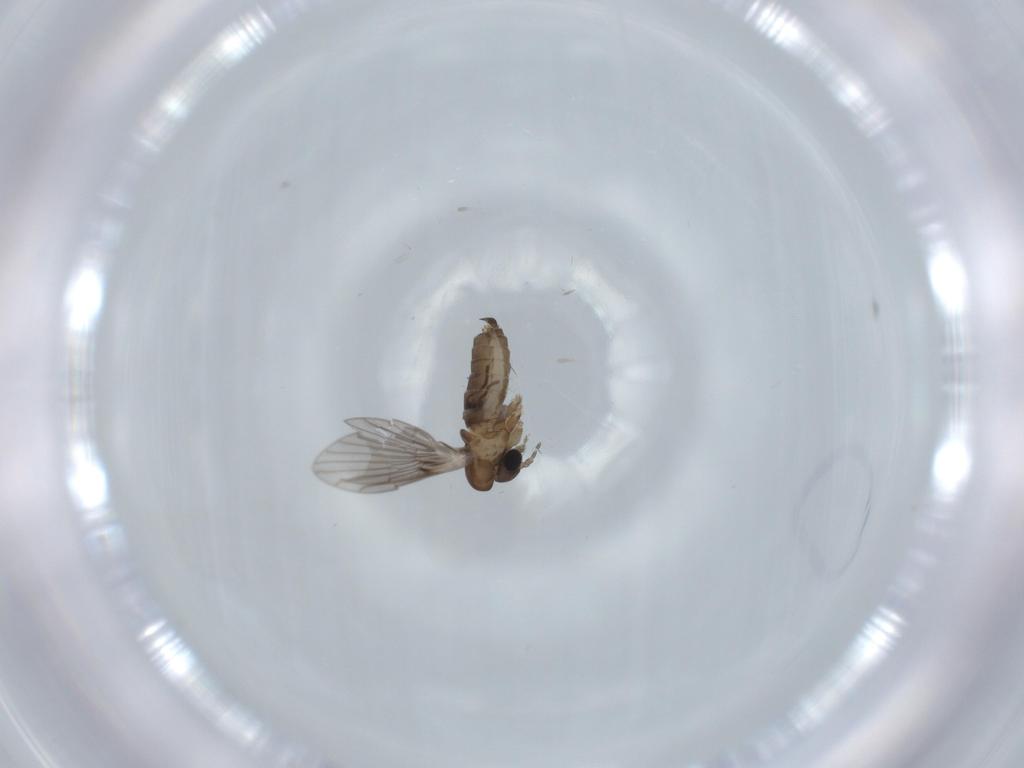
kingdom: Animalia
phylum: Arthropoda
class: Insecta
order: Diptera
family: Psychodidae
